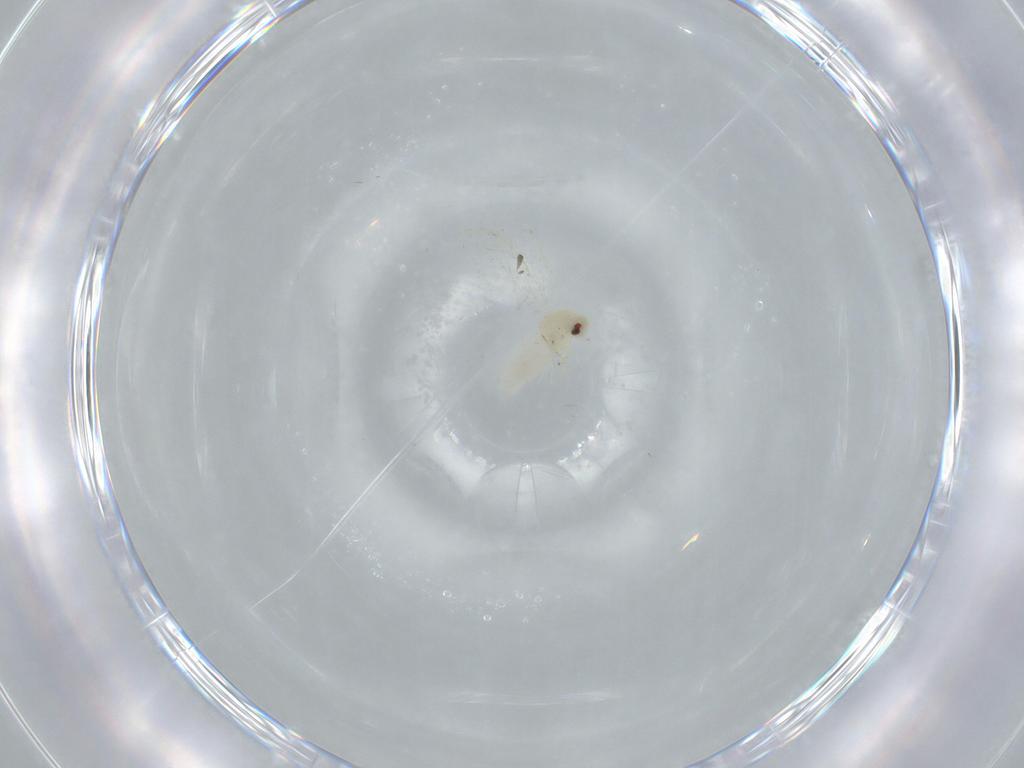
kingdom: Animalia
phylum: Arthropoda
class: Insecta
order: Hemiptera
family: Aleyrodidae
